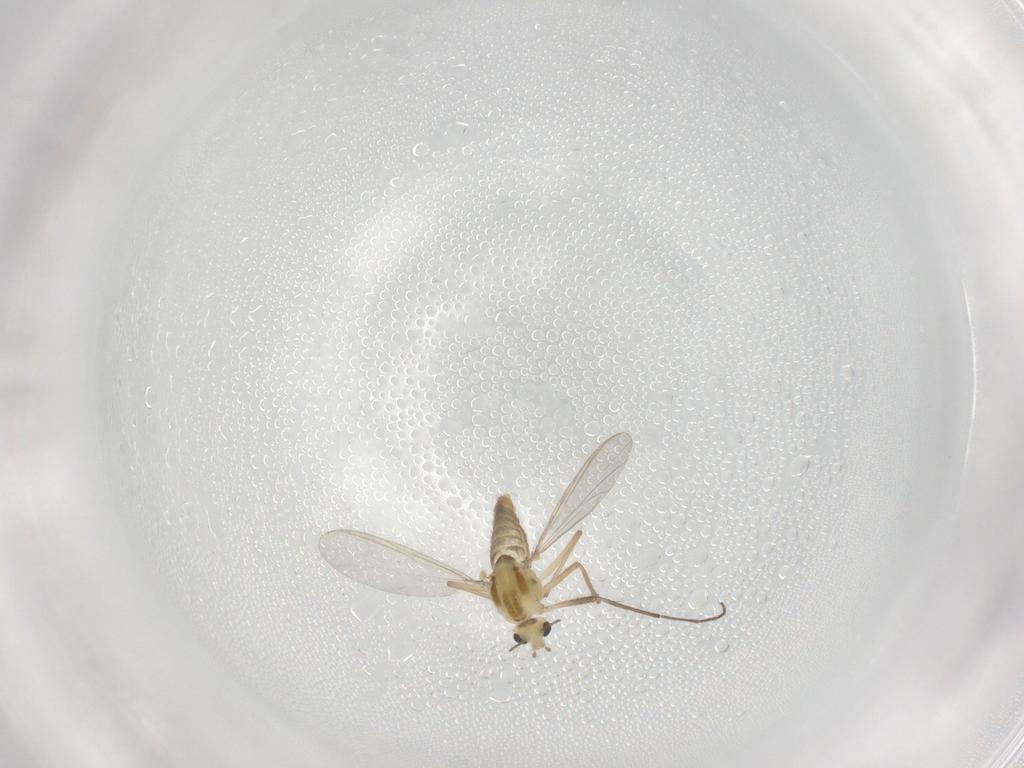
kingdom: Animalia
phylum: Arthropoda
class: Insecta
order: Diptera
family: Chironomidae
